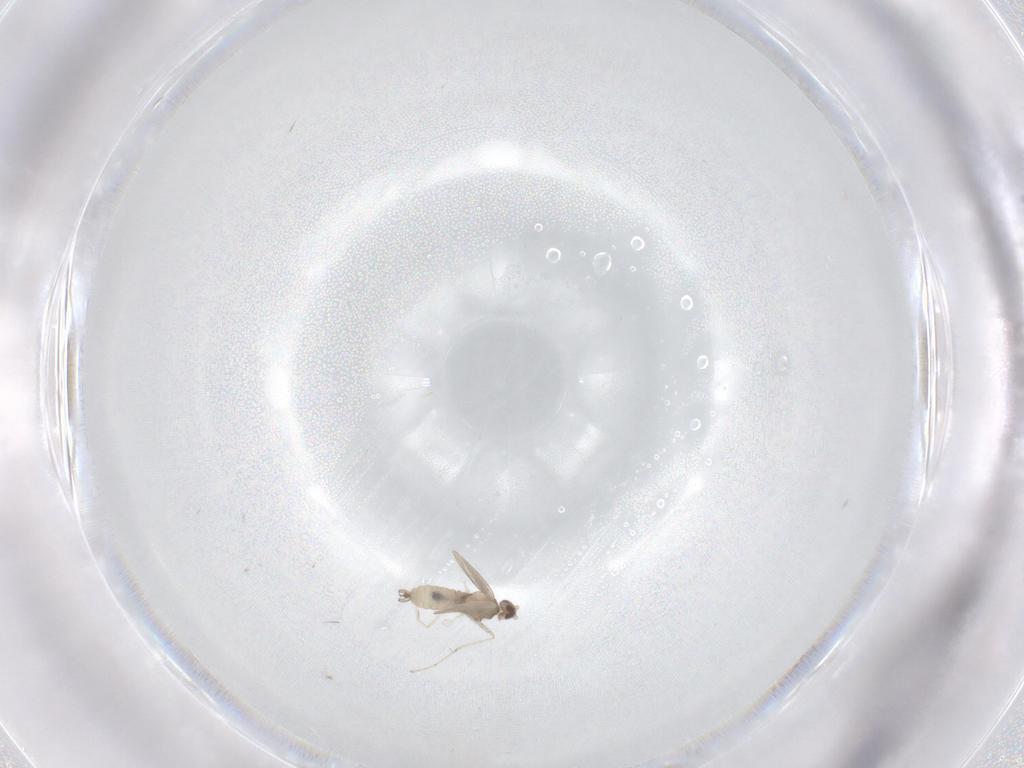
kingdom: Animalia
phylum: Arthropoda
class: Insecta
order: Diptera
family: Cecidomyiidae
